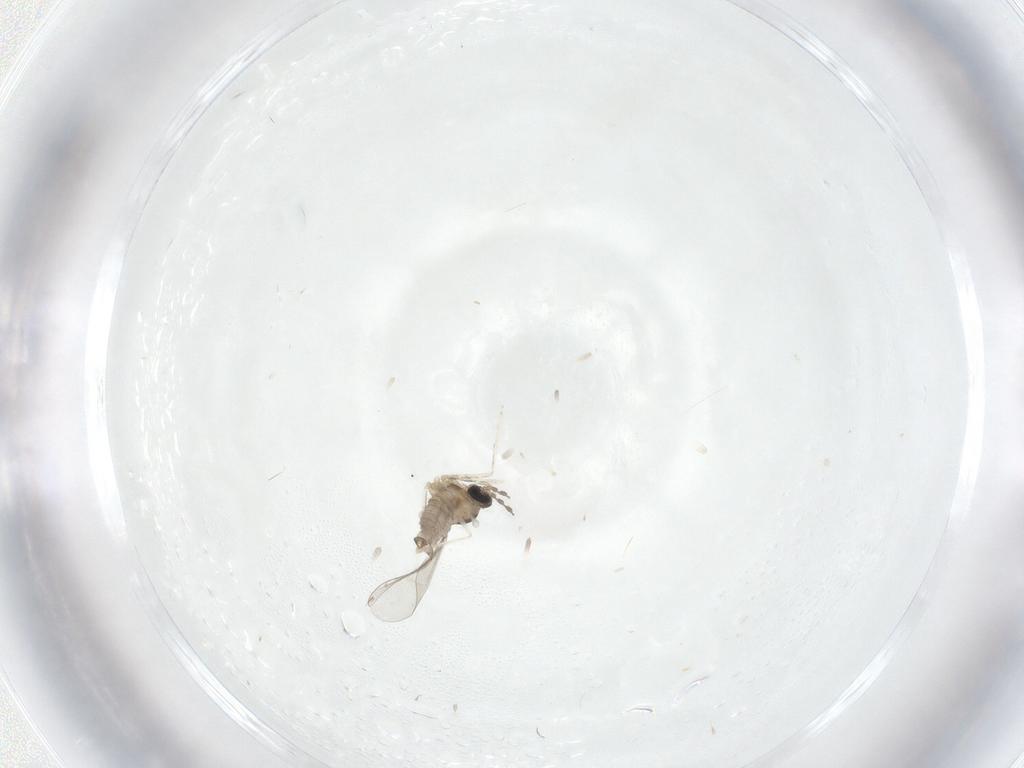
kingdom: Animalia
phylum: Arthropoda
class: Insecta
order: Diptera
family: Cecidomyiidae
